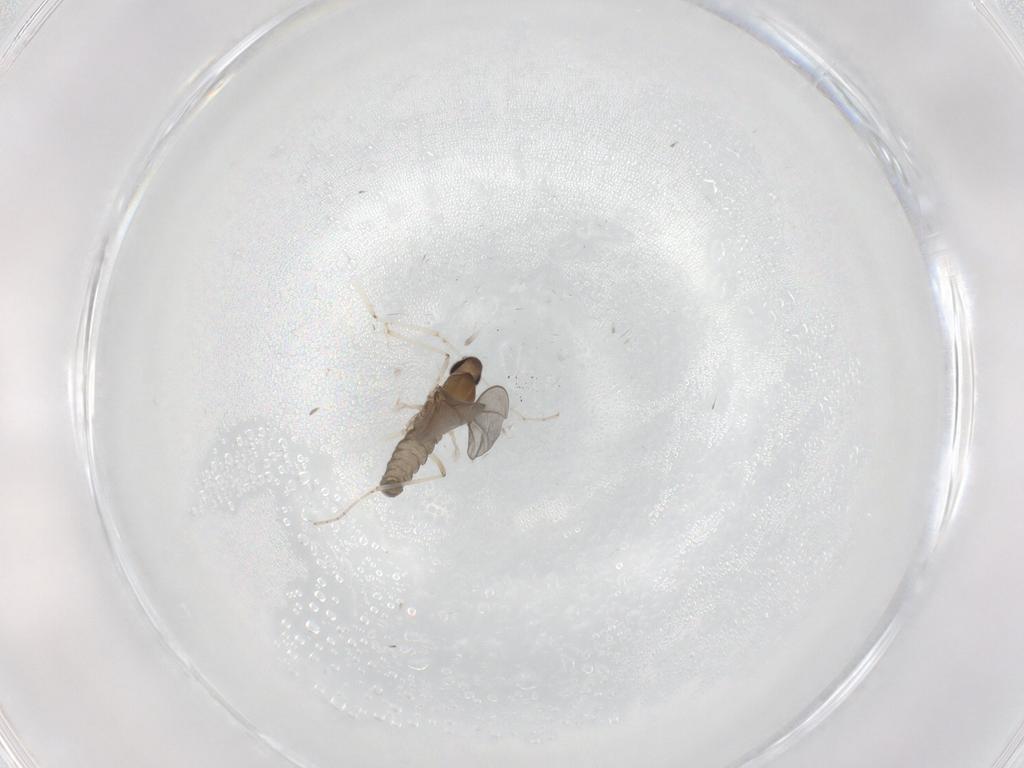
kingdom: Animalia
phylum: Arthropoda
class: Insecta
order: Diptera
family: Cecidomyiidae
